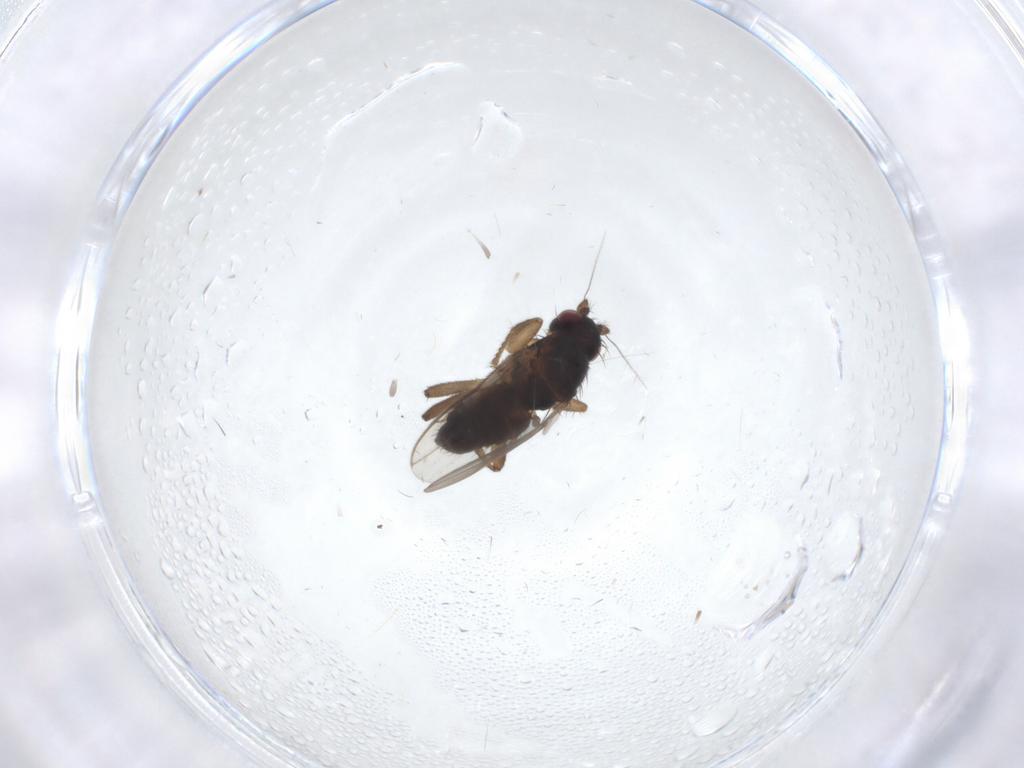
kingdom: Animalia
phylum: Arthropoda
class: Insecta
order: Diptera
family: Sphaeroceridae
